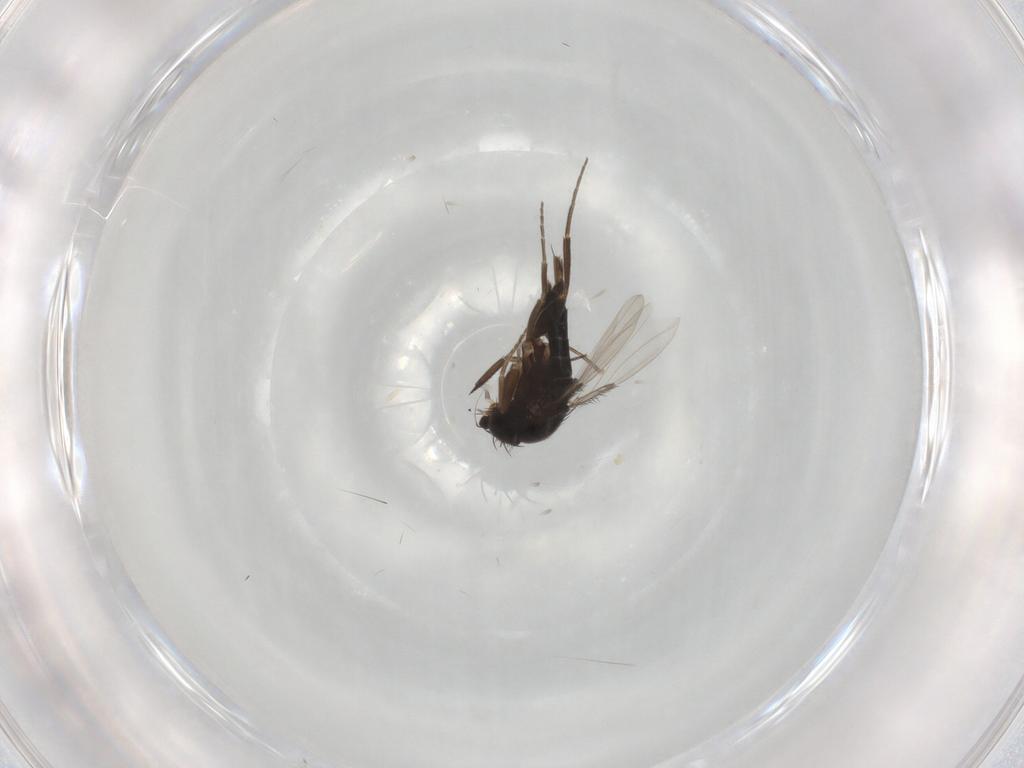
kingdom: Animalia
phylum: Arthropoda
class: Insecta
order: Diptera
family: Phoridae
